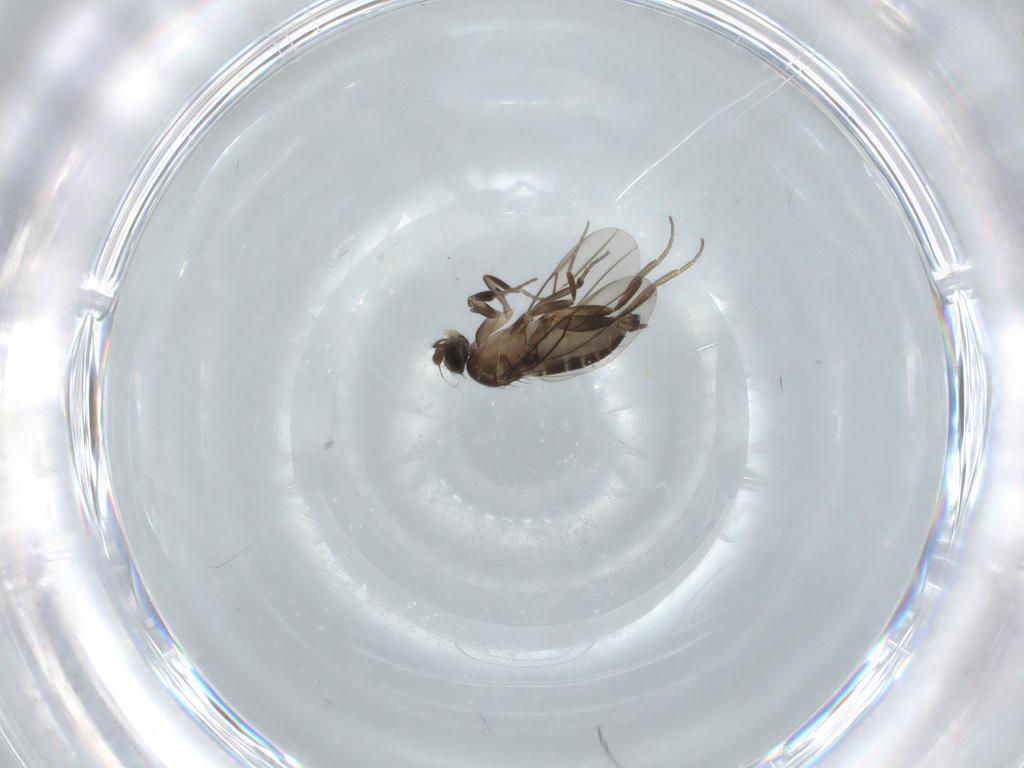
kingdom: Animalia
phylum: Arthropoda
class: Insecta
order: Diptera
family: Phoridae
